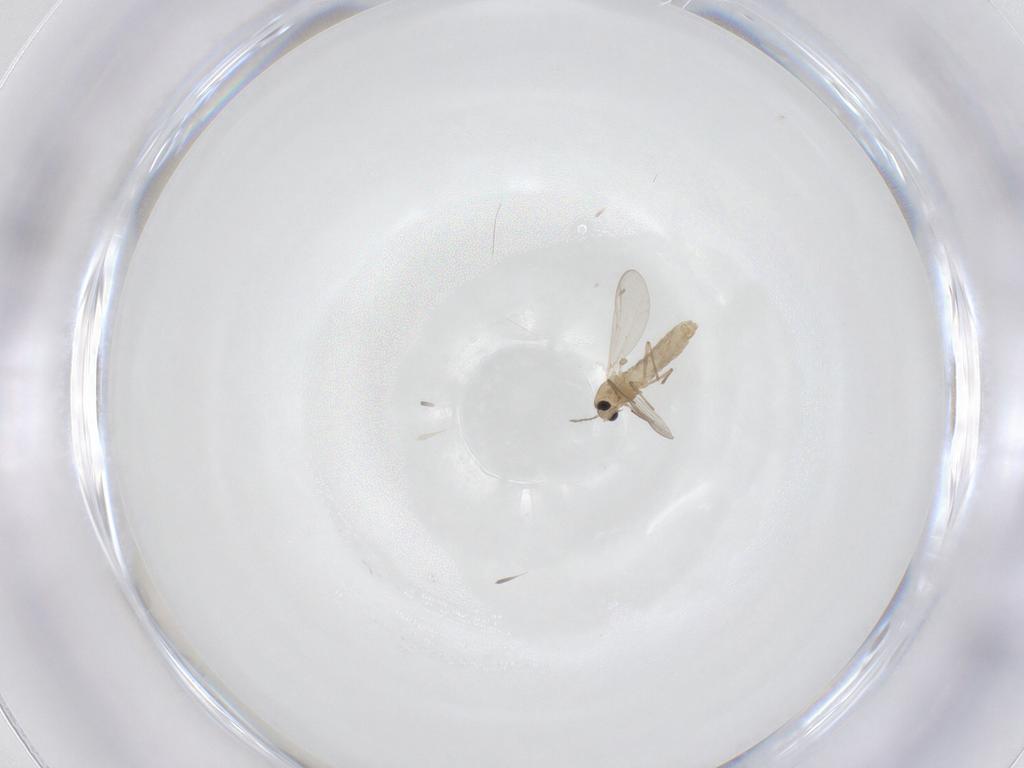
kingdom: Animalia
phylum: Arthropoda
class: Insecta
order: Diptera
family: Chironomidae
